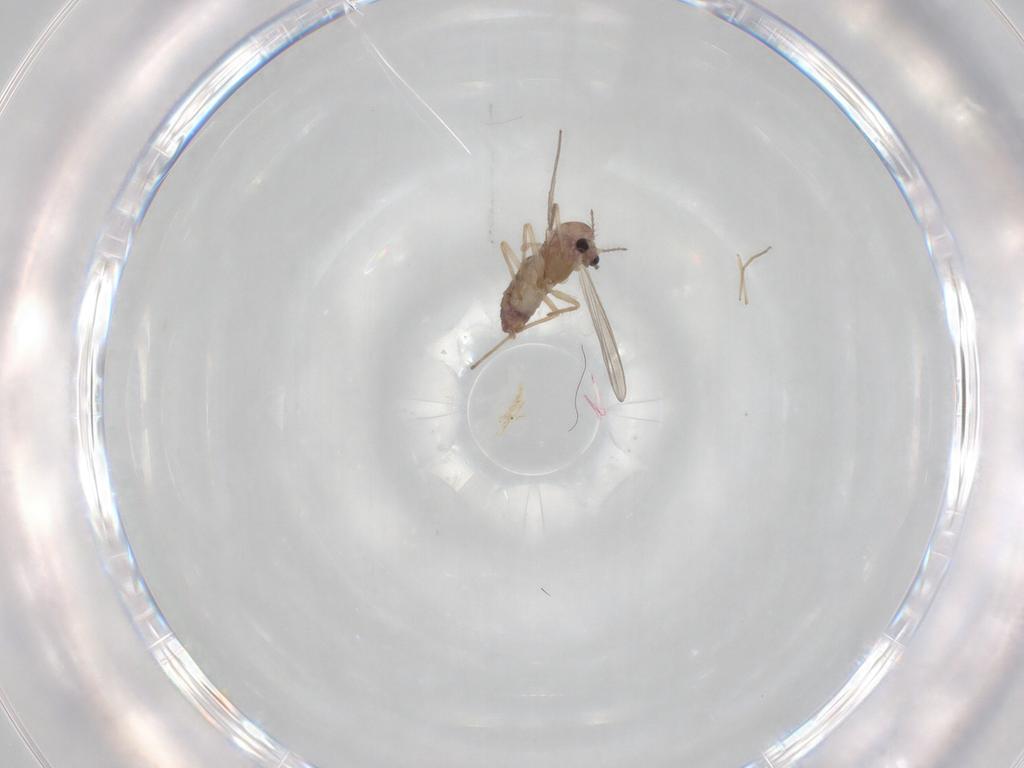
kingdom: Animalia
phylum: Arthropoda
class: Insecta
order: Diptera
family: Chironomidae
